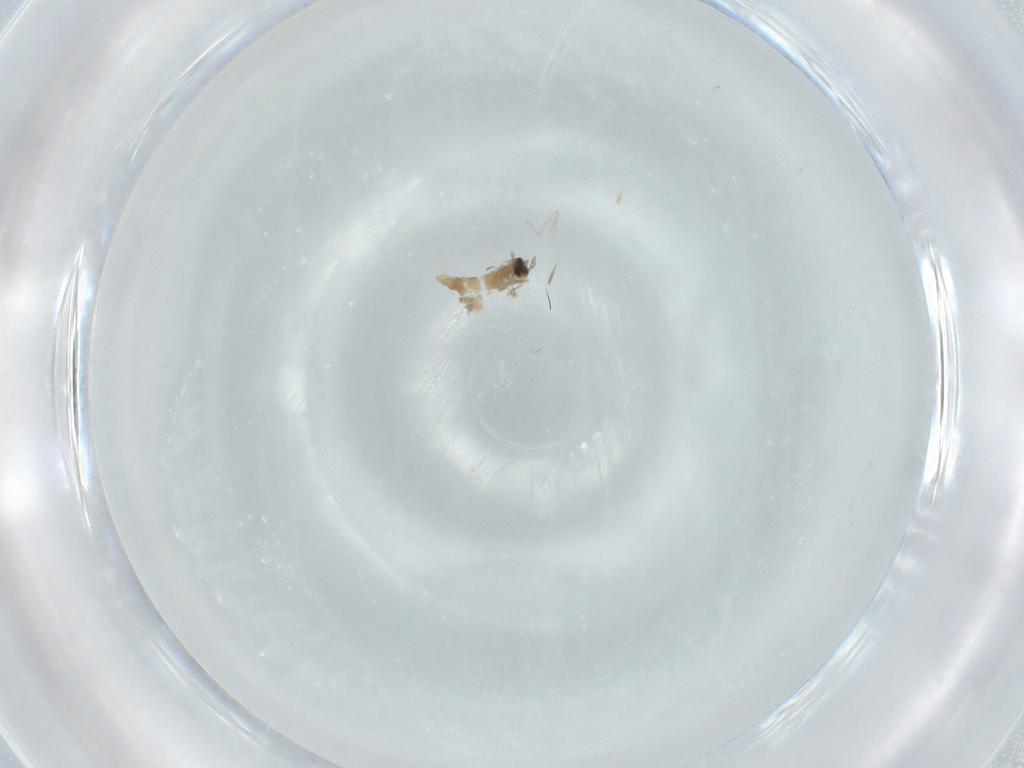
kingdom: Animalia
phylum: Arthropoda
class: Insecta
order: Diptera
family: Cecidomyiidae
